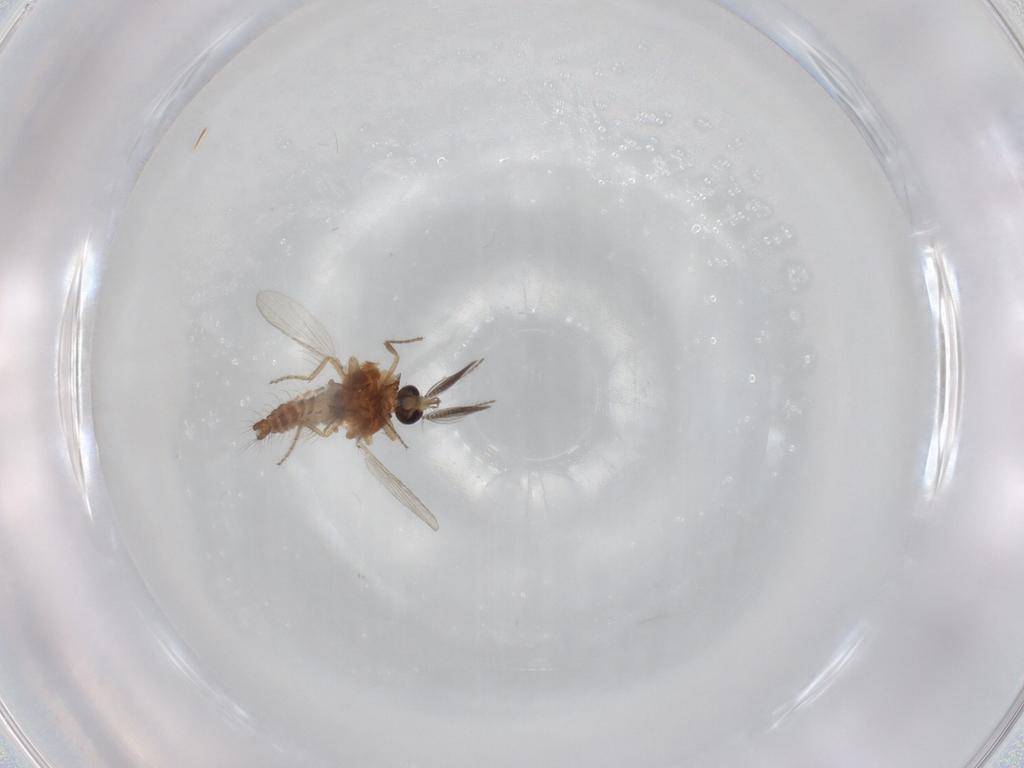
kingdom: Animalia
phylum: Arthropoda
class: Insecta
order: Diptera
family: Ceratopogonidae
